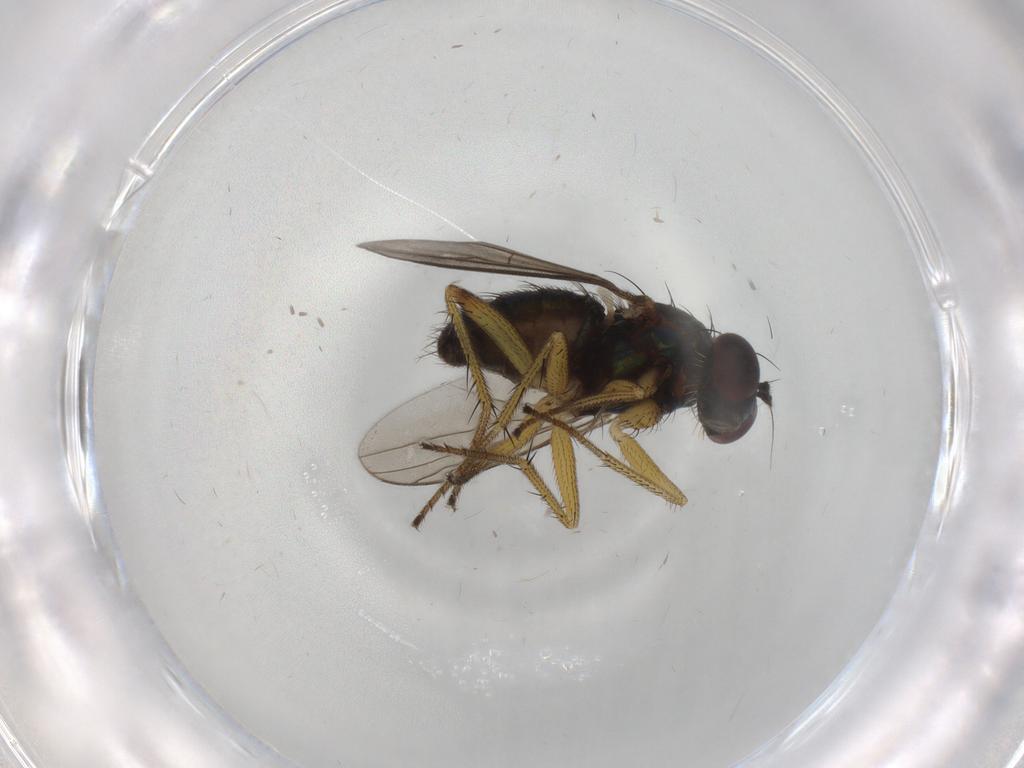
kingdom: Animalia
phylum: Arthropoda
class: Insecta
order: Diptera
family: Dolichopodidae
